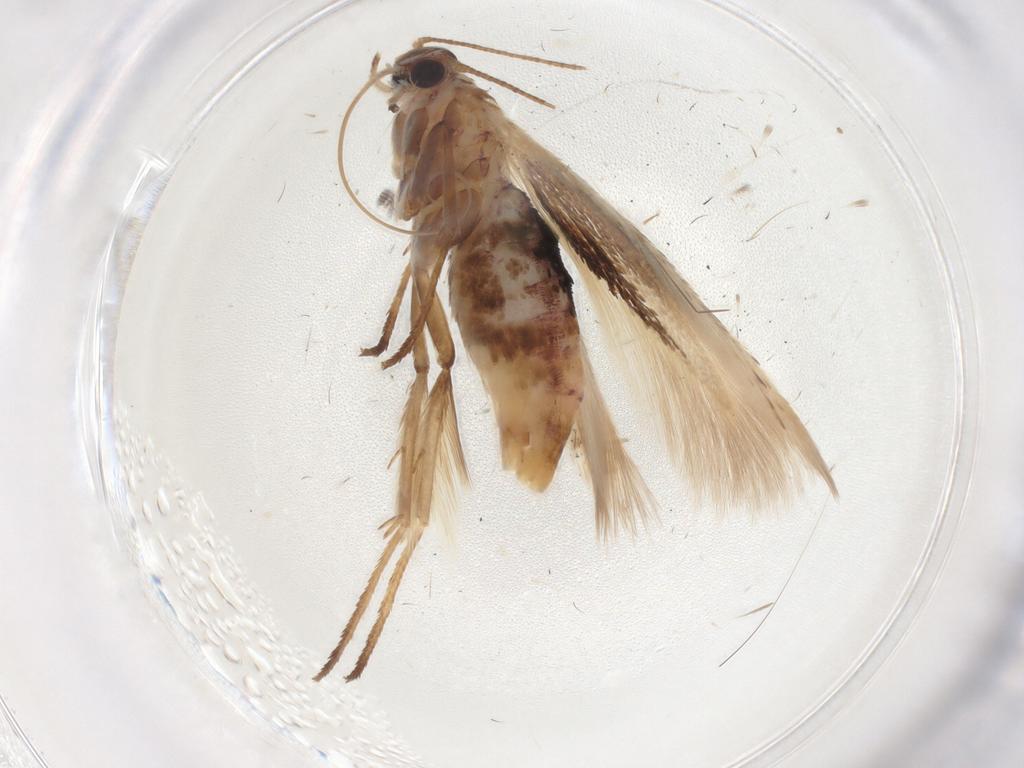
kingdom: Animalia
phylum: Arthropoda
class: Insecta
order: Lepidoptera
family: Scythrididae
